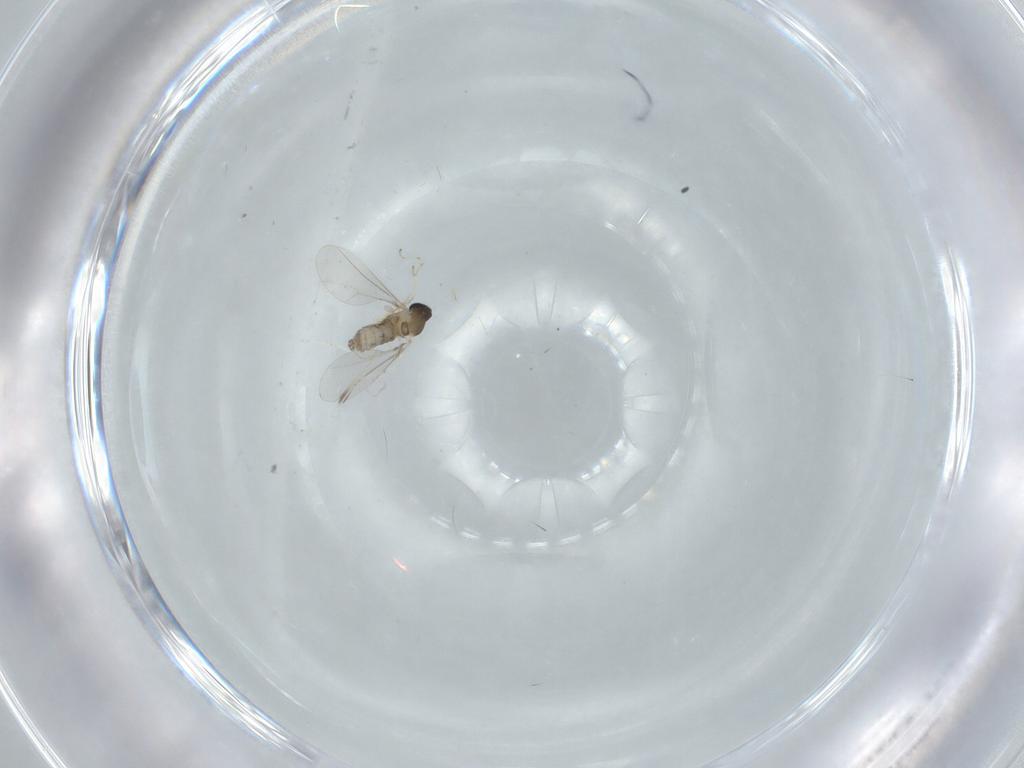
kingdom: Animalia
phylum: Arthropoda
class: Insecta
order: Diptera
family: Cecidomyiidae
